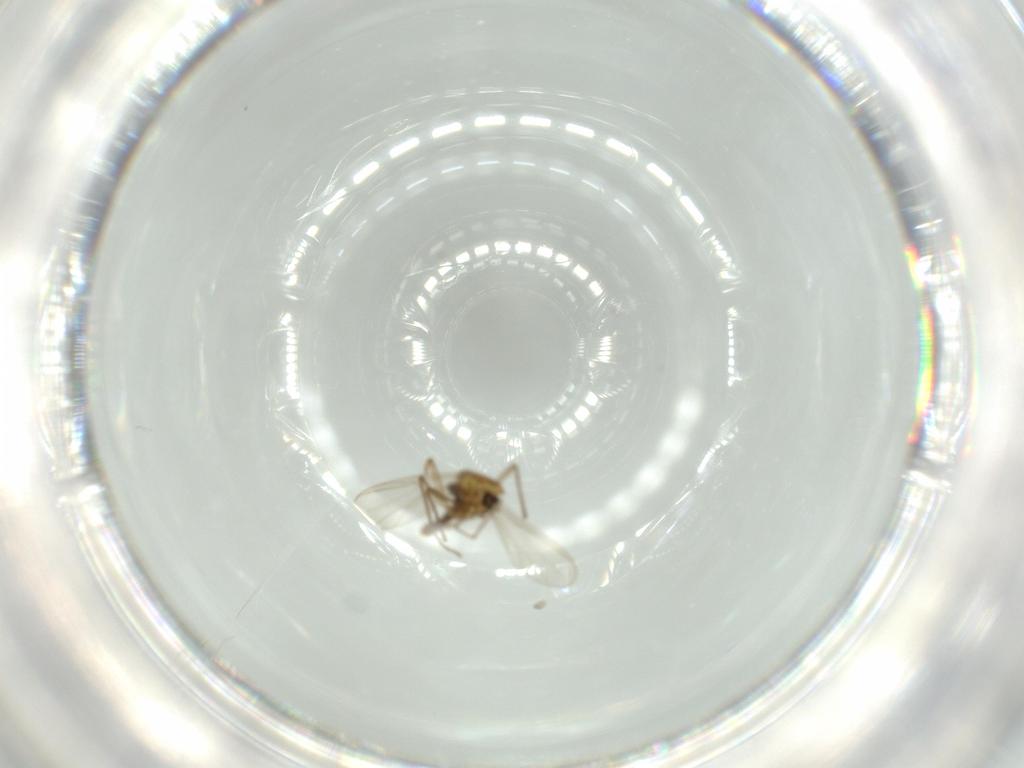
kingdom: Animalia
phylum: Arthropoda
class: Insecta
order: Diptera
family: Chironomidae
